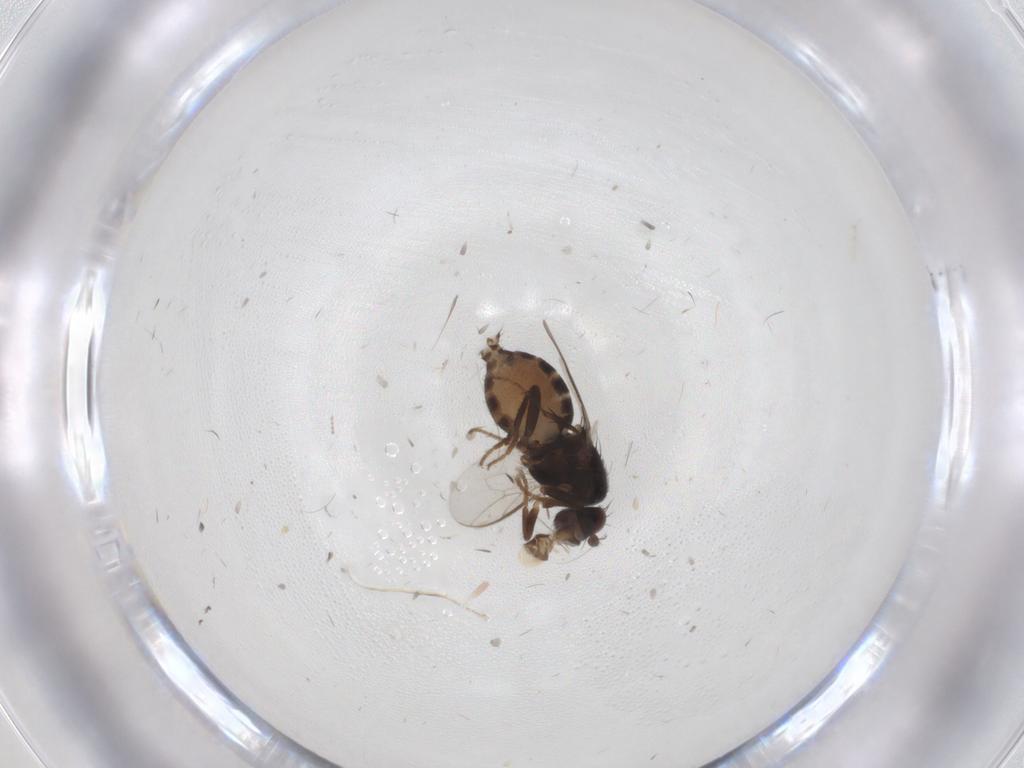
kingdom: Animalia
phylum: Arthropoda
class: Insecta
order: Diptera
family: Sphaeroceridae
